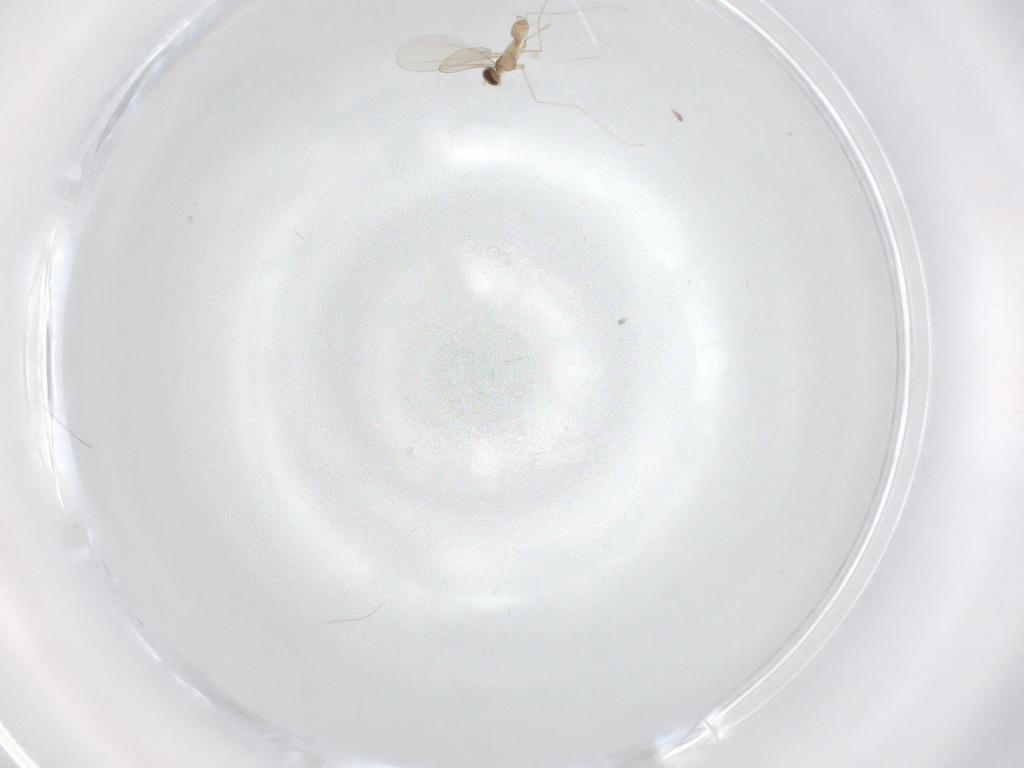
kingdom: Animalia
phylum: Arthropoda
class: Insecta
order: Diptera
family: Cecidomyiidae
